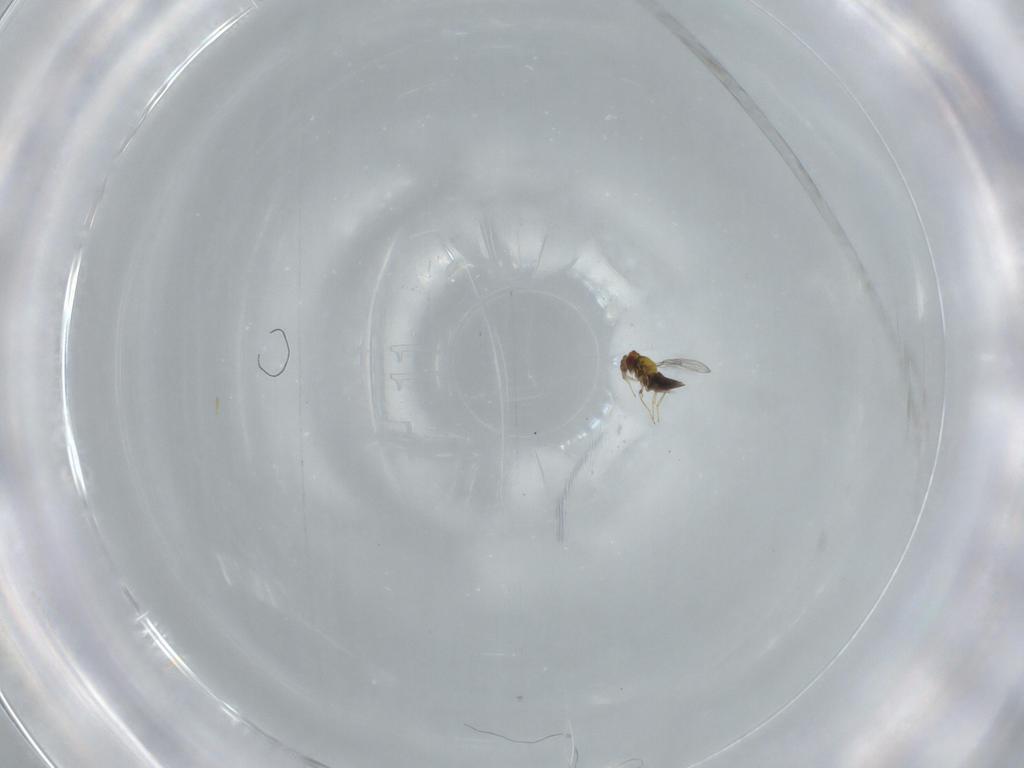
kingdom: Animalia
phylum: Arthropoda
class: Insecta
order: Hymenoptera
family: Trichogrammatidae
